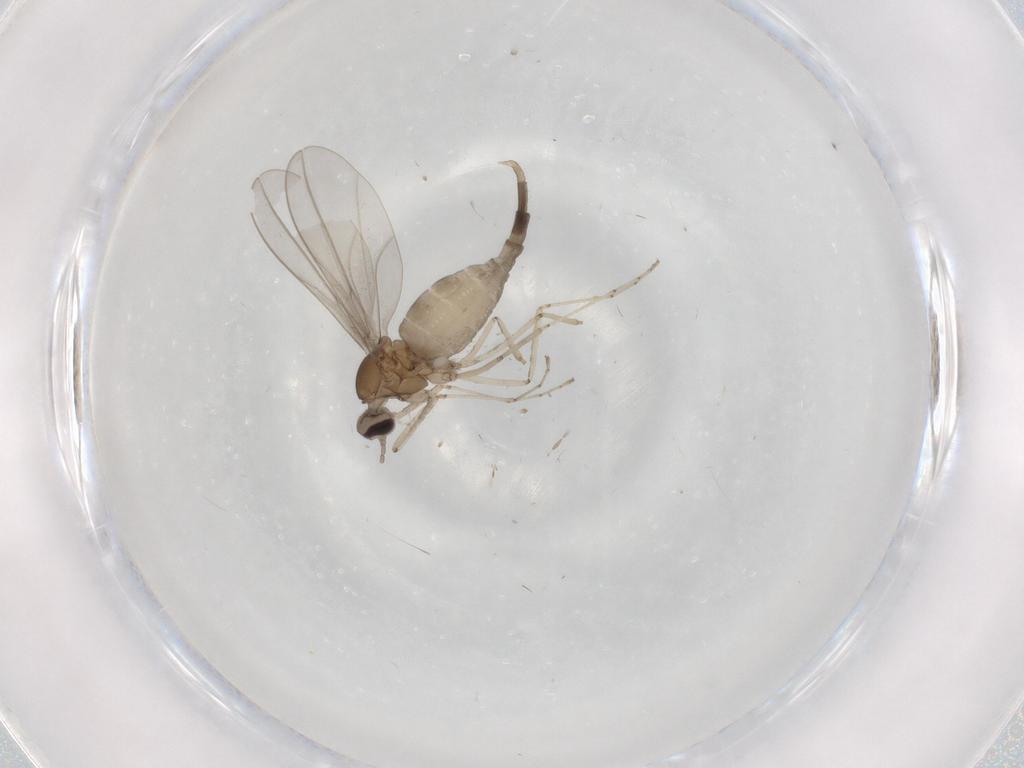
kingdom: Animalia
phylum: Arthropoda
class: Insecta
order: Diptera
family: Cecidomyiidae
